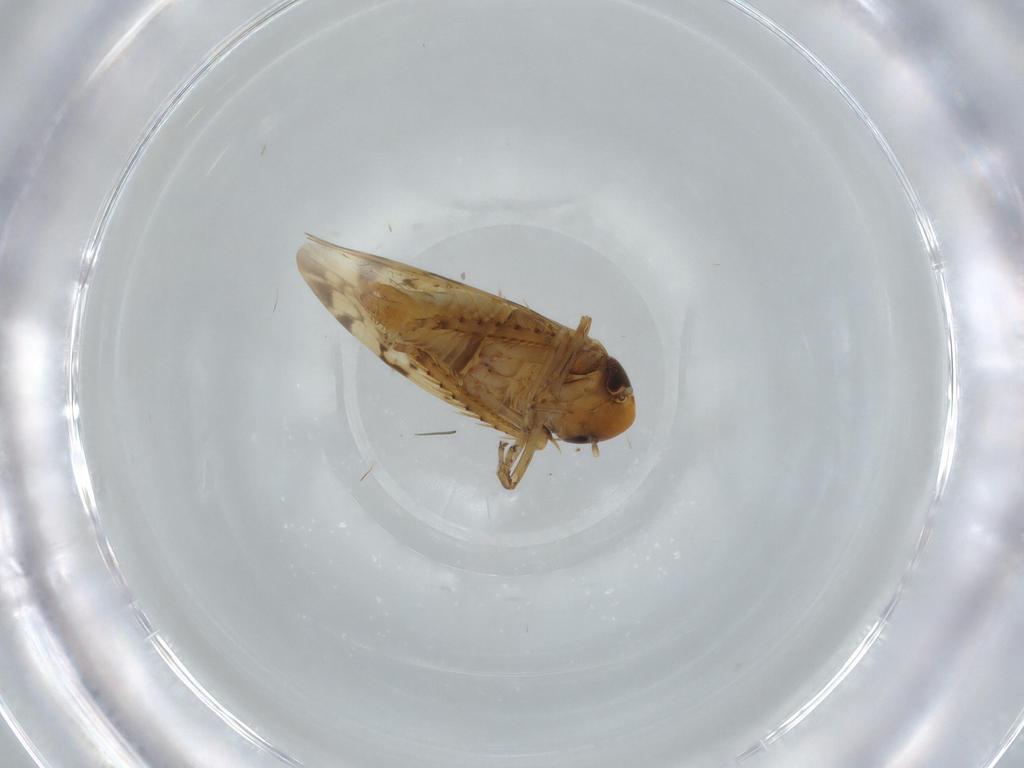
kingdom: Animalia
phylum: Arthropoda
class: Insecta
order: Hemiptera
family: Cicadellidae
